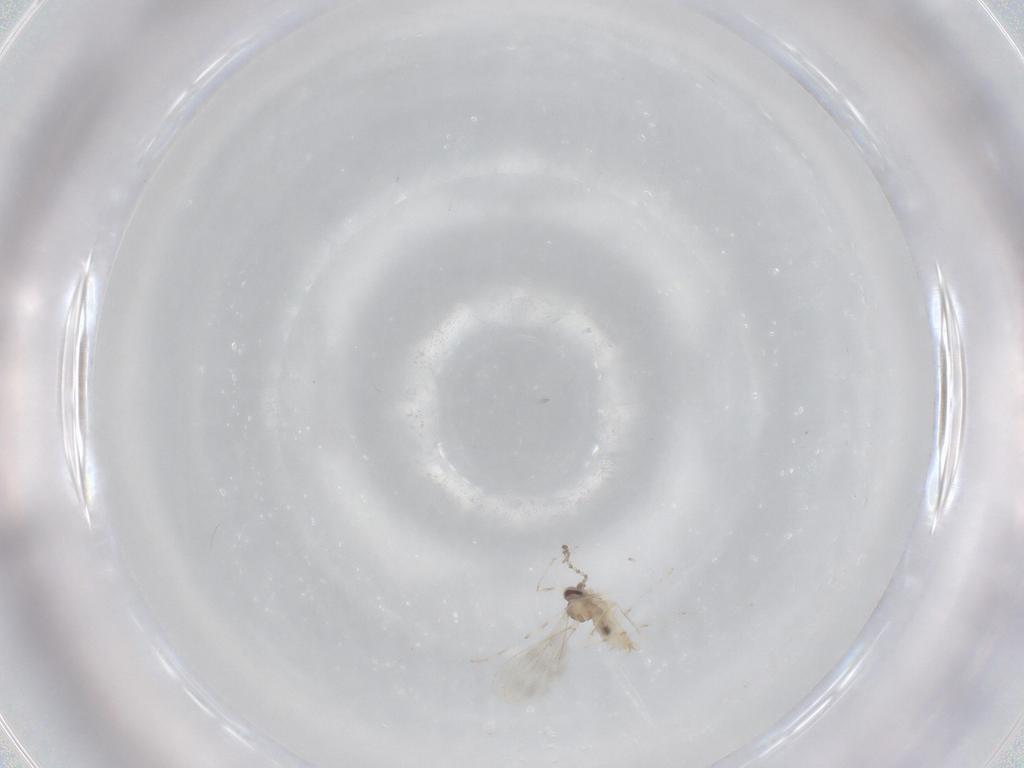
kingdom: Animalia
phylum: Arthropoda
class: Insecta
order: Diptera
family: Cecidomyiidae
